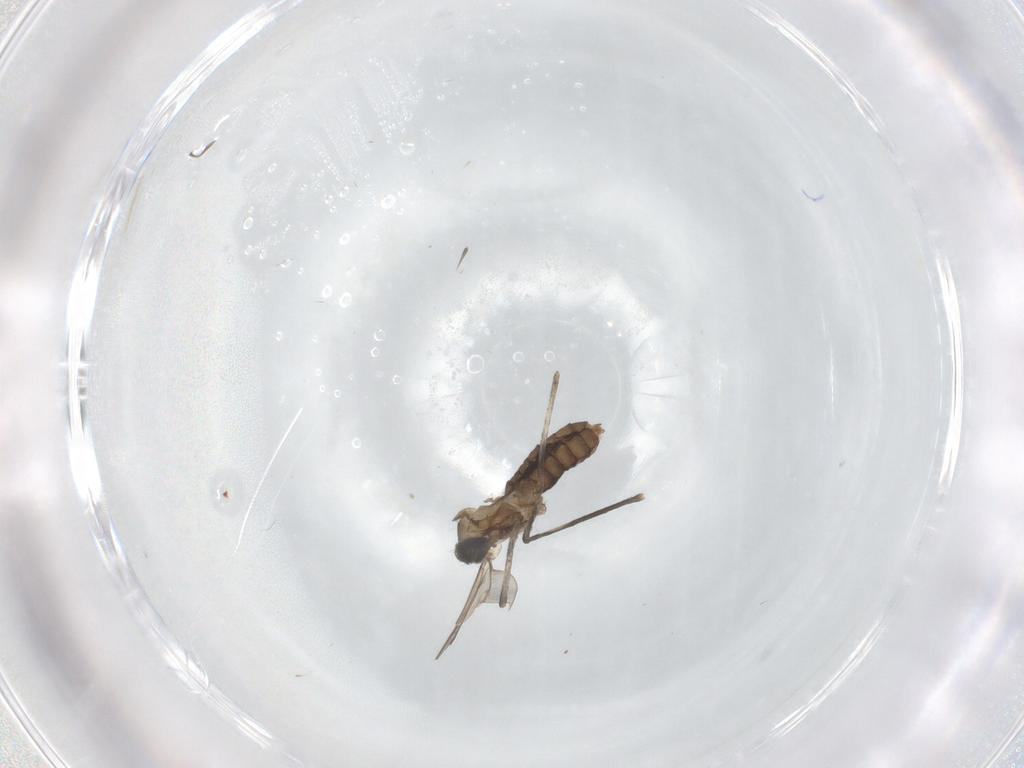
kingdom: Animalia
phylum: Arthropoda
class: Insecta
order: Diptera
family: Cecidomyiidae
